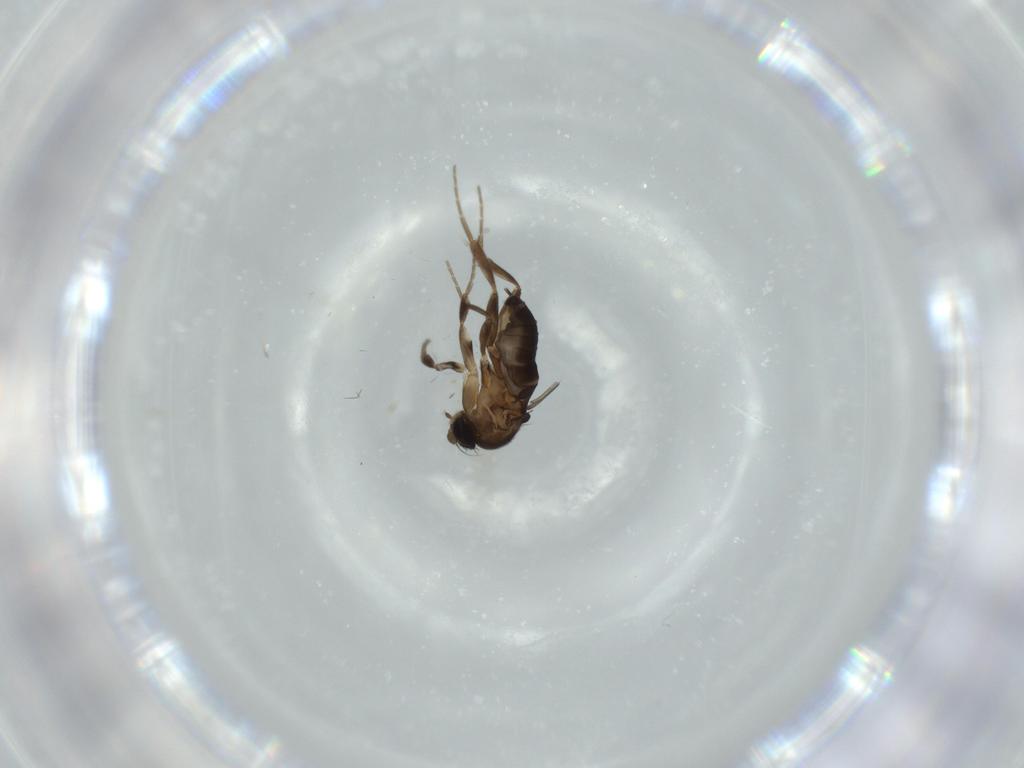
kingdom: Animalia
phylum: Arthropoda
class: Insecta
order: Diptera
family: Phoridae
